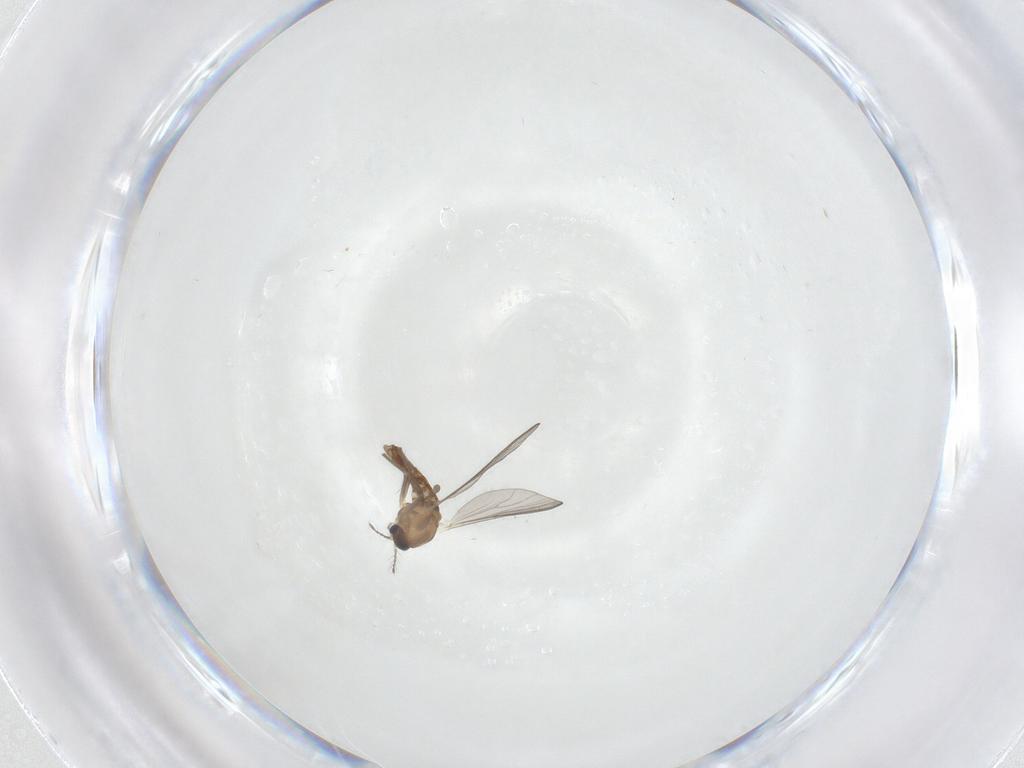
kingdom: Animalia
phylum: Arthropoda
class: Insecta
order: Diptera
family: Chironomidae
